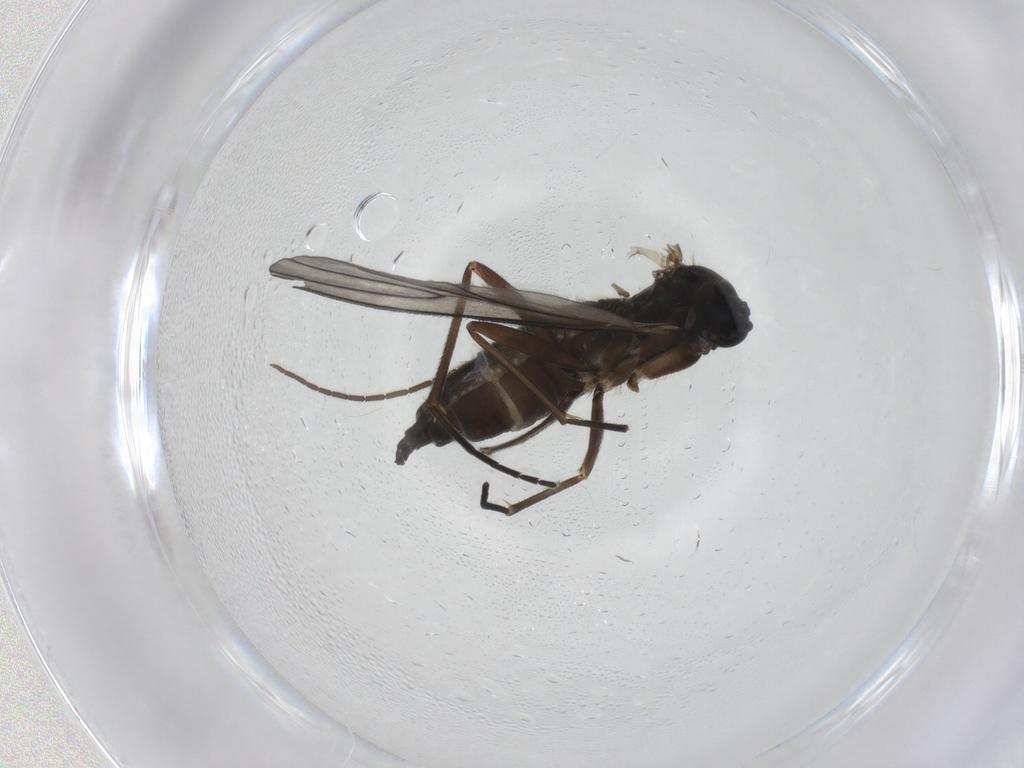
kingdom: Animalia
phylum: Arthropoda
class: Insecta
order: Diptera
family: Sciaridae
